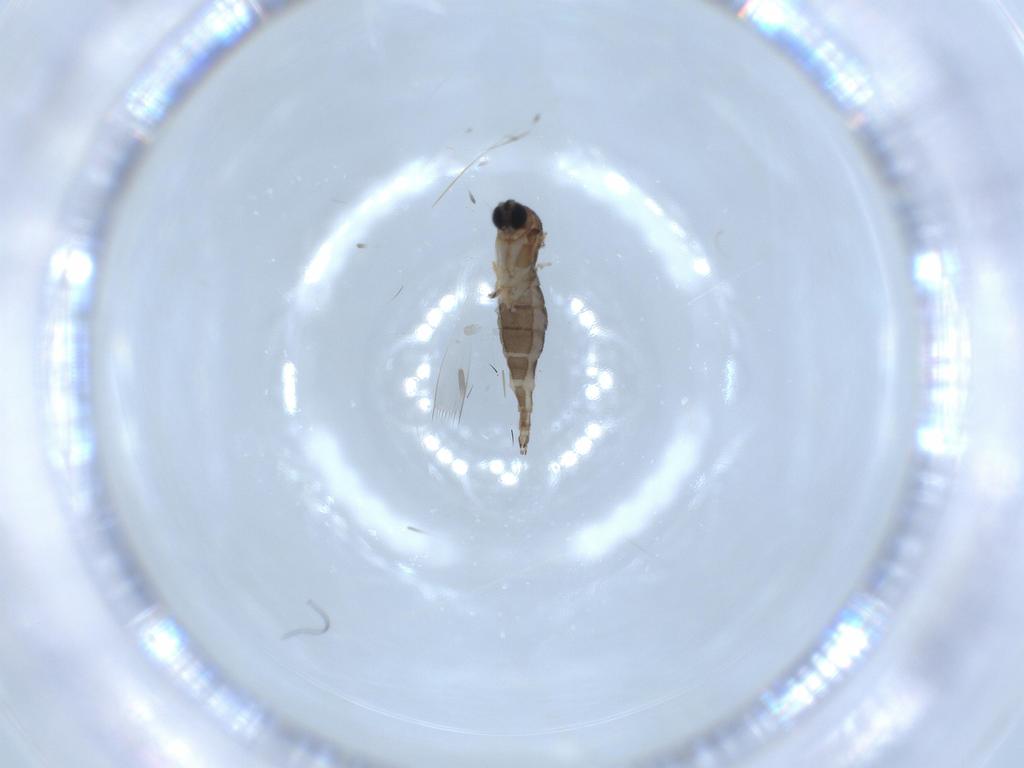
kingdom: Animalia
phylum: Arthropoda
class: Insecta
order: Diptera
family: Sciaridae
